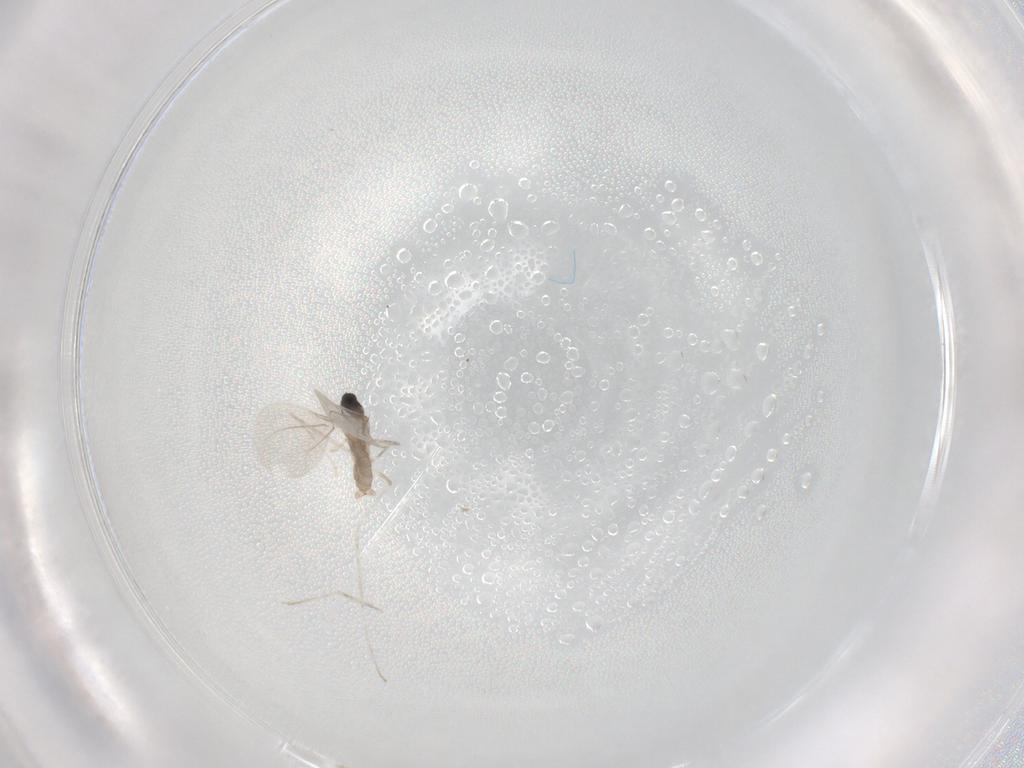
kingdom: Animalia
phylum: Arthropoda
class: Insecta
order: Diptera
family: Cecidomyiidae
